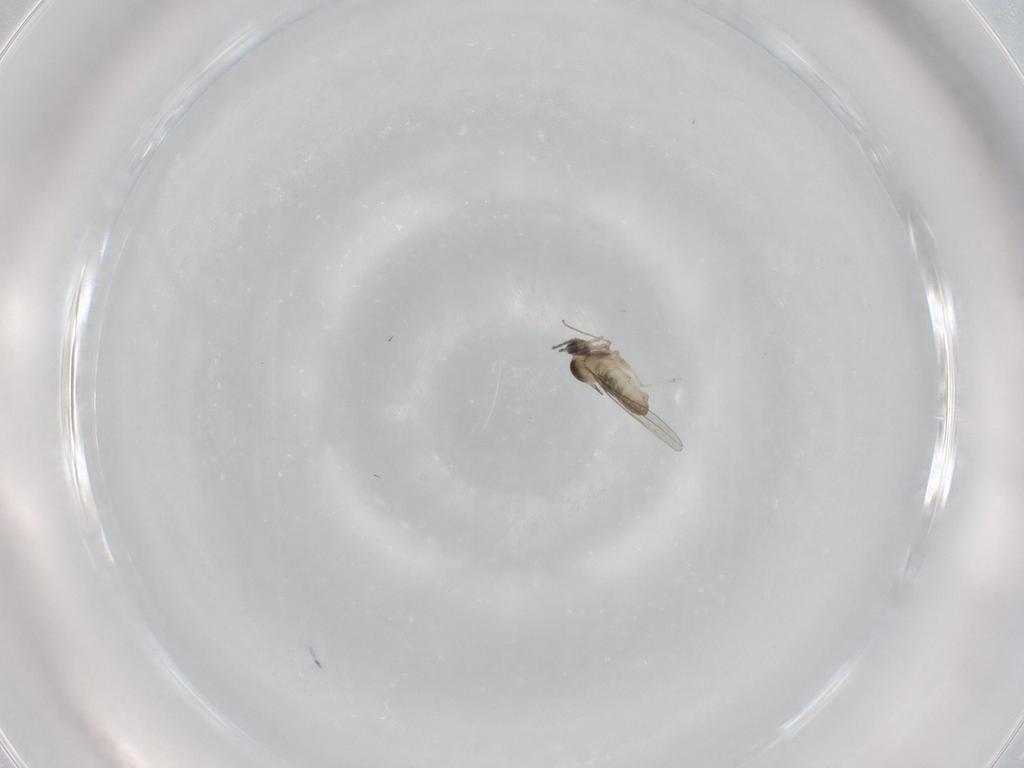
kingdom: Animalia
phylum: Arthropoda
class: Insecta
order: Diptera
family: Cecidomyiidae
